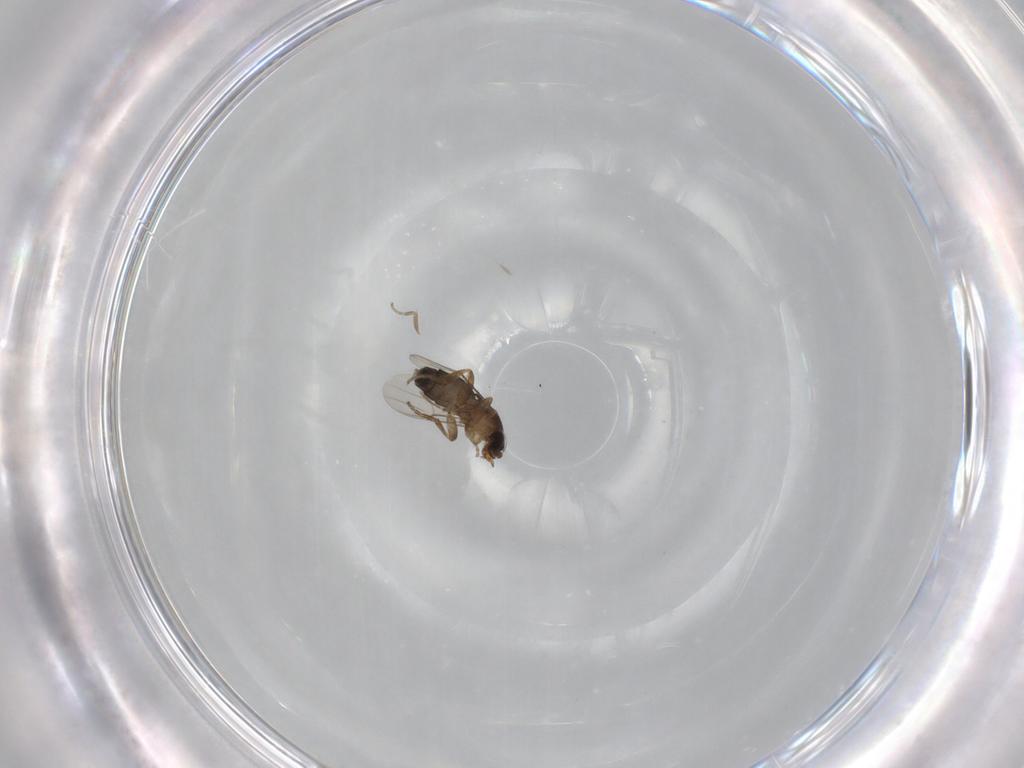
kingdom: Animalia
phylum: Arthropoda
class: Insecta
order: Diptera
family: Phoridae
